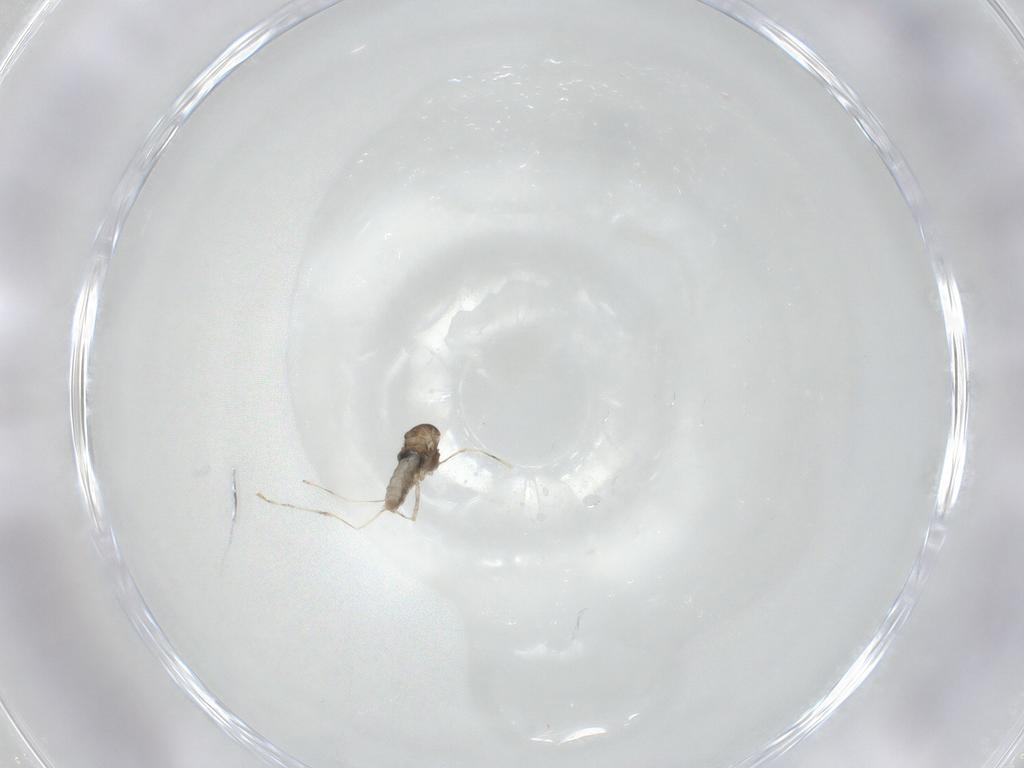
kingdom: Animalia
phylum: Arthropoda
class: Insecta
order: Diptera
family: Cecidomyiidae
